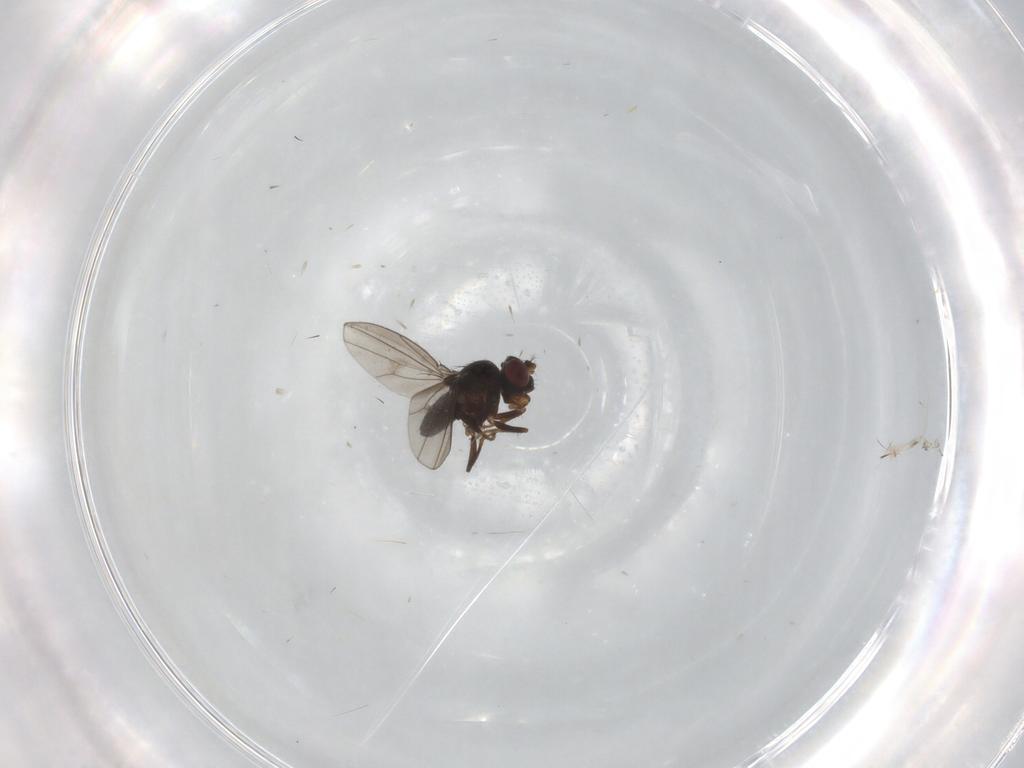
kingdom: Animalia
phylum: Arthropoda
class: Insecta
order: Diptera
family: Ephydridae
